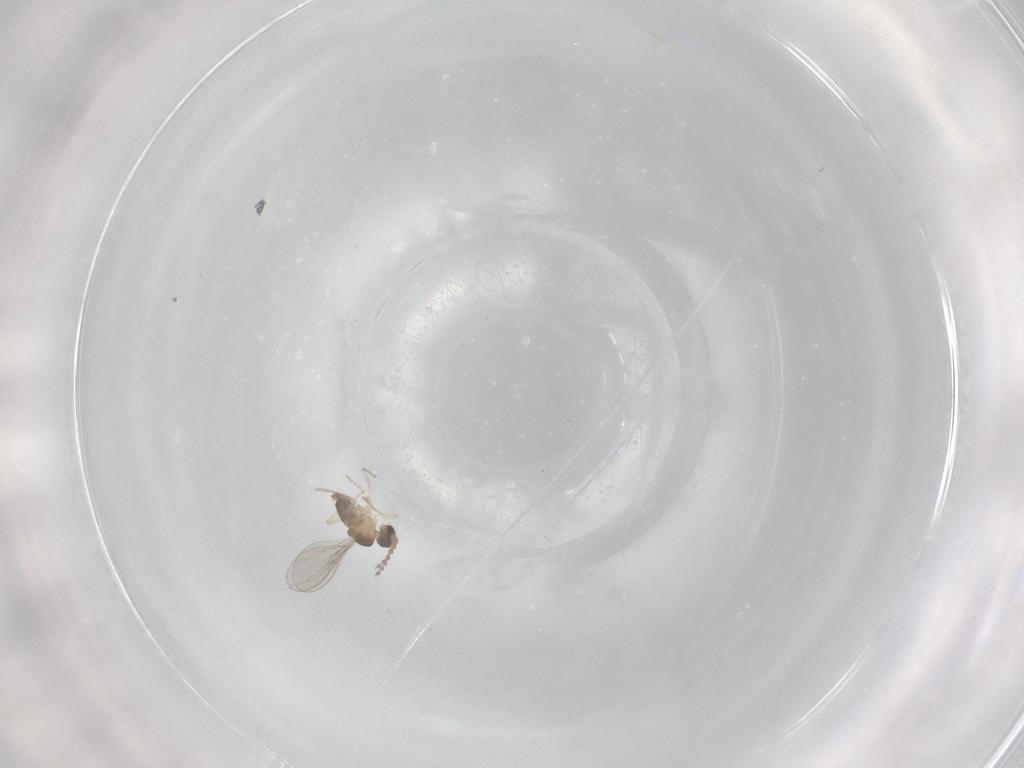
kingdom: Animalia
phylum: Arthropoda
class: Insecta
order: Diptera
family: Cecidomyiidae
